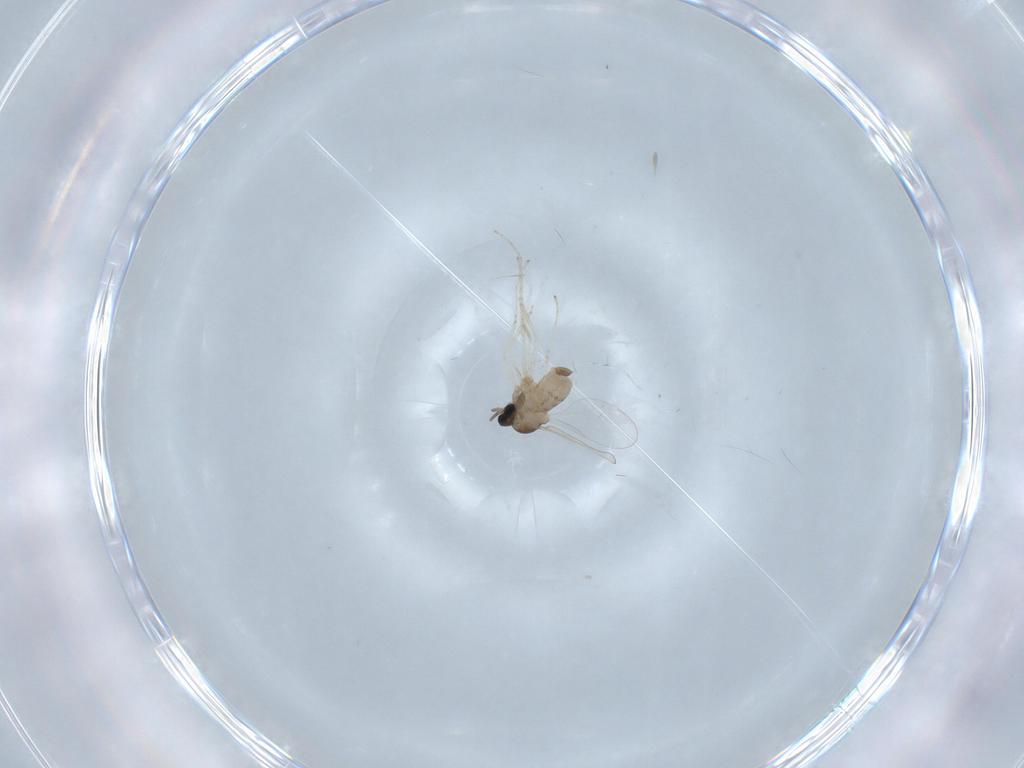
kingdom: Animalia
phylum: Arthropoda
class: Insecta
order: Diptera
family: Cecidomyiidae
